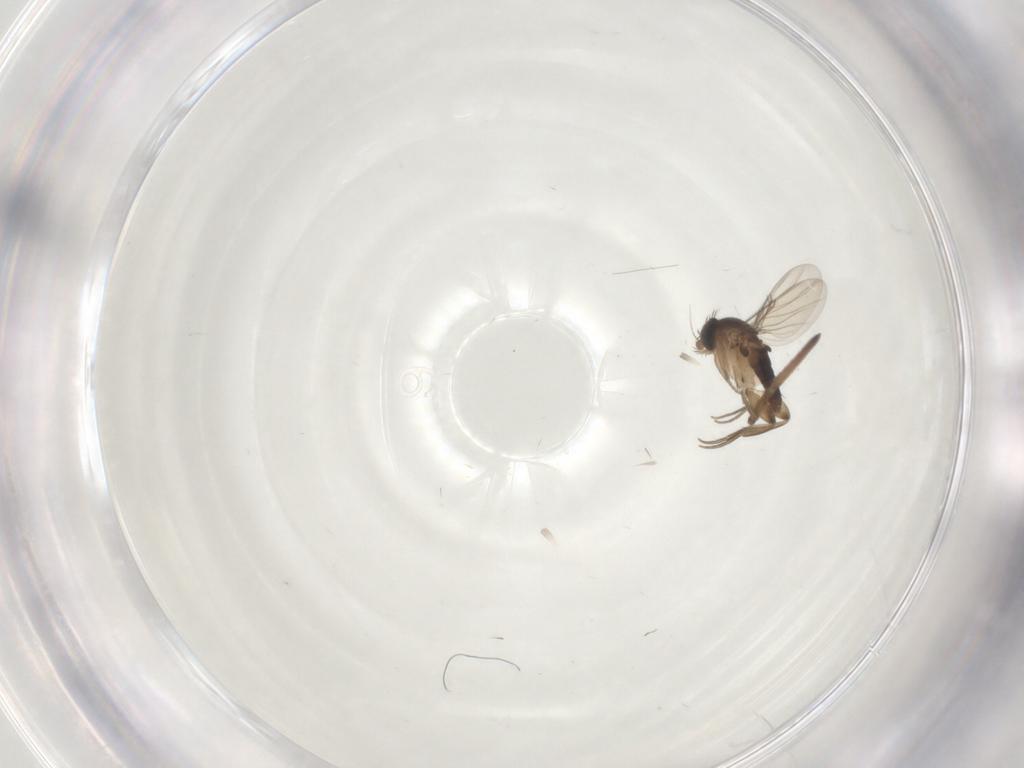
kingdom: Animalia
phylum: Arthropoda
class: Insecta
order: Diptera
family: Phoridae
